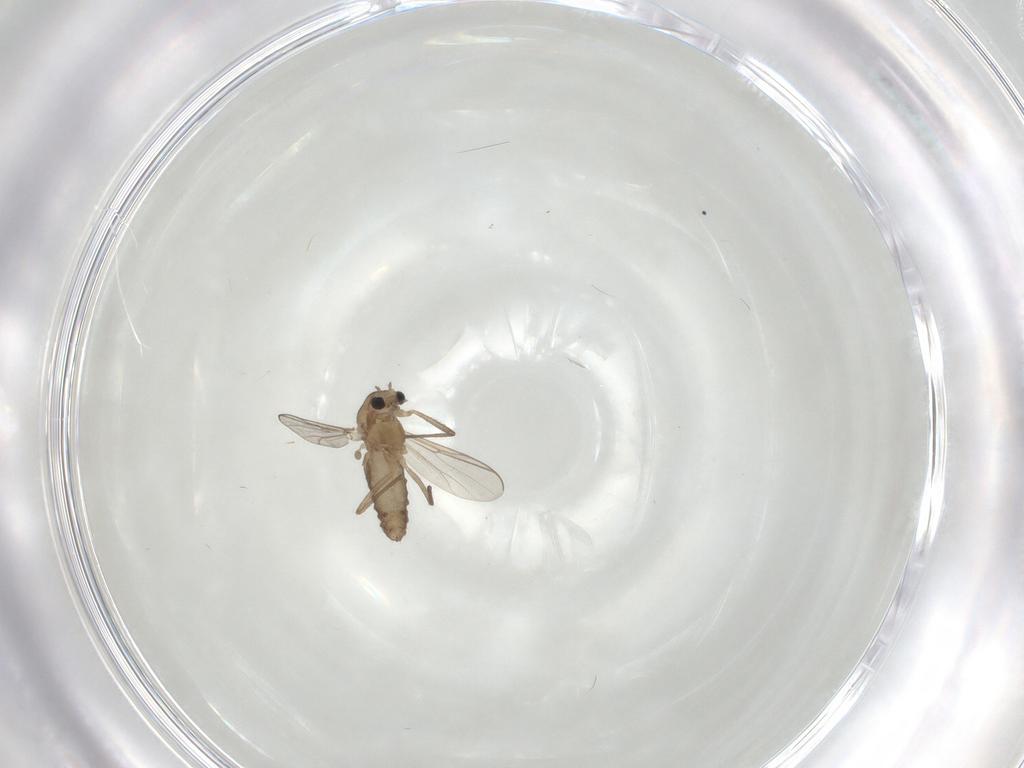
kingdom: Animalia
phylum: Arthropoda
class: Insecta
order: Diptera
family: Chironomidae
